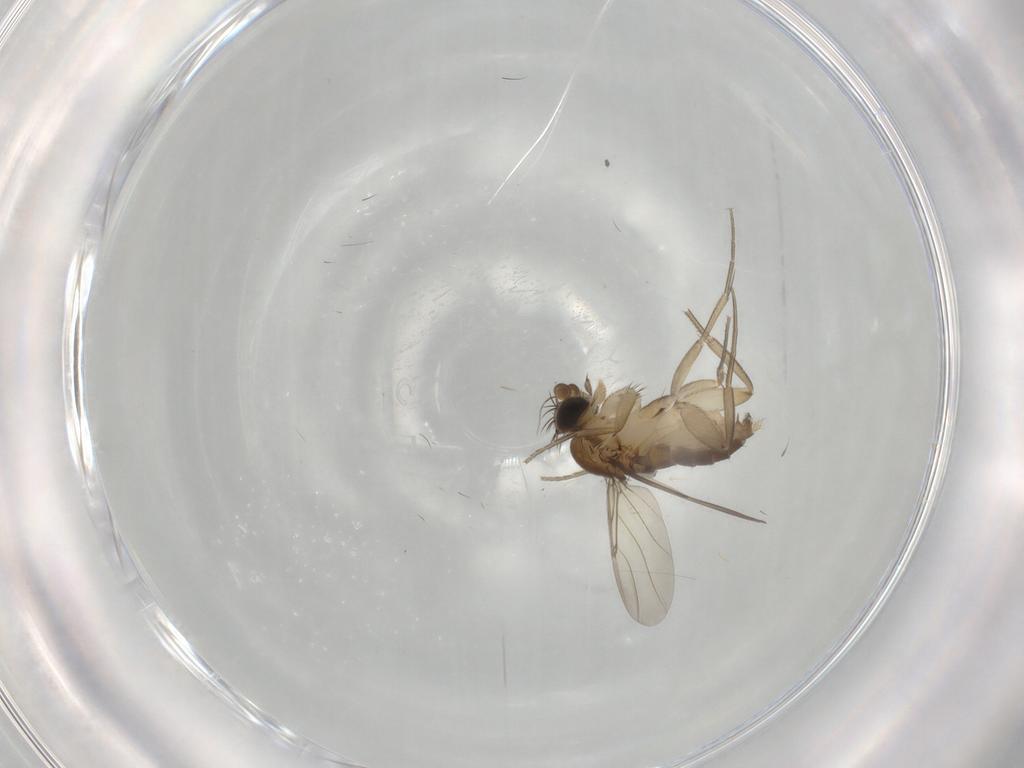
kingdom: Animalia
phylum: Arthropoda
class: Insecta
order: Diptera
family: Phoridae
